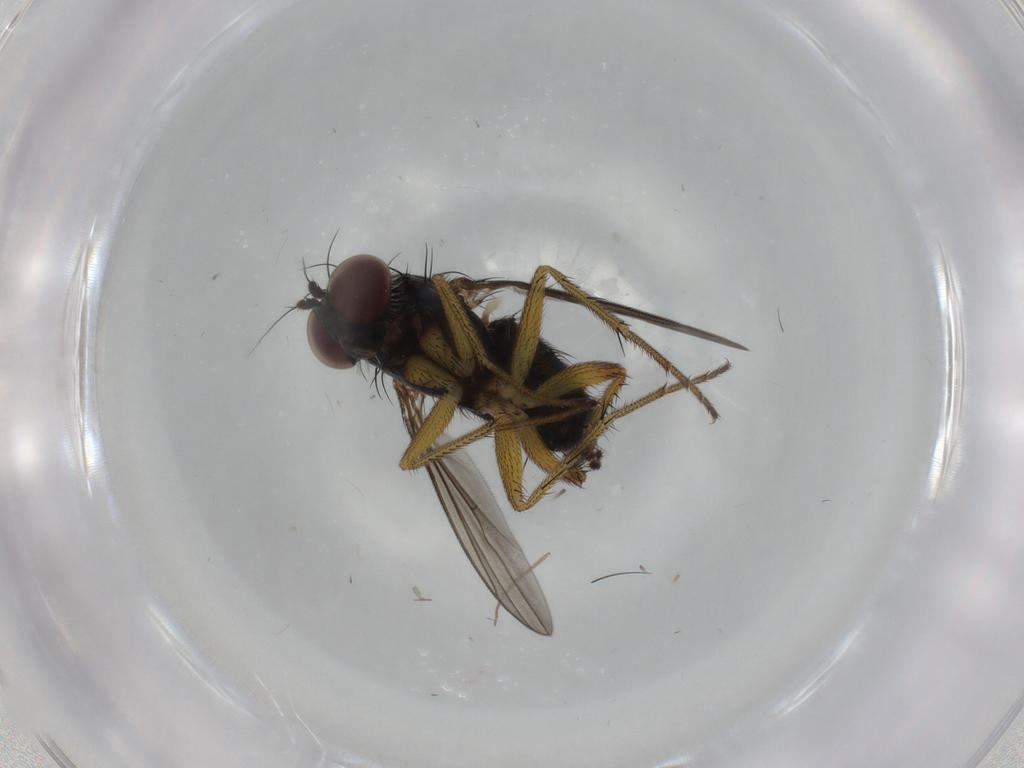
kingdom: Animalia
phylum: Arthropoda
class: Insecta
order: Diptera
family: Dolichopodidae
